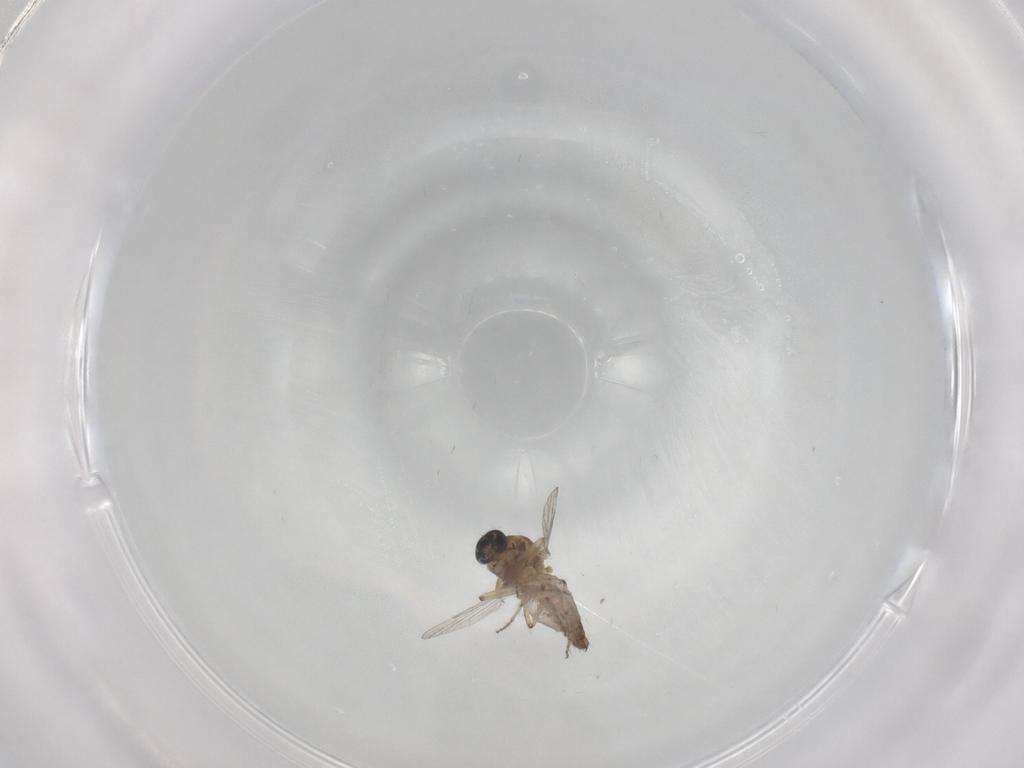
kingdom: Animalia
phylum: Arthropoda
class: Insecta
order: Diptera
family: Ceratopogonidae
